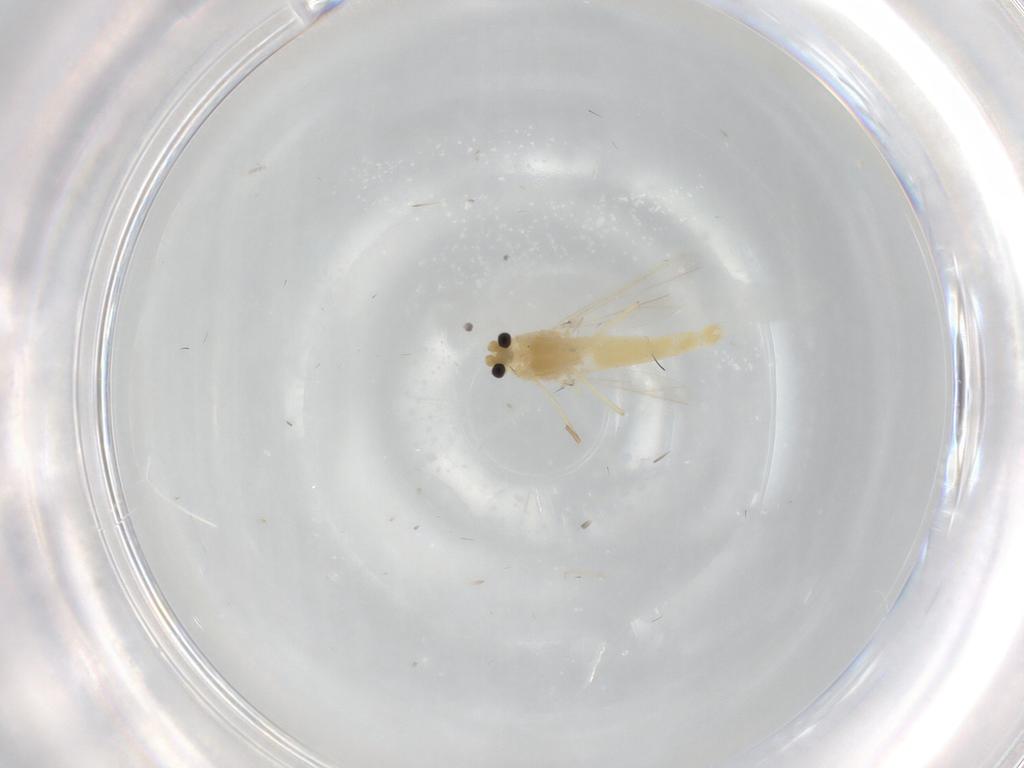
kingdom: Animalia
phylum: Arthropoda
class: Insecta
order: Diptera
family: Chironomidae
